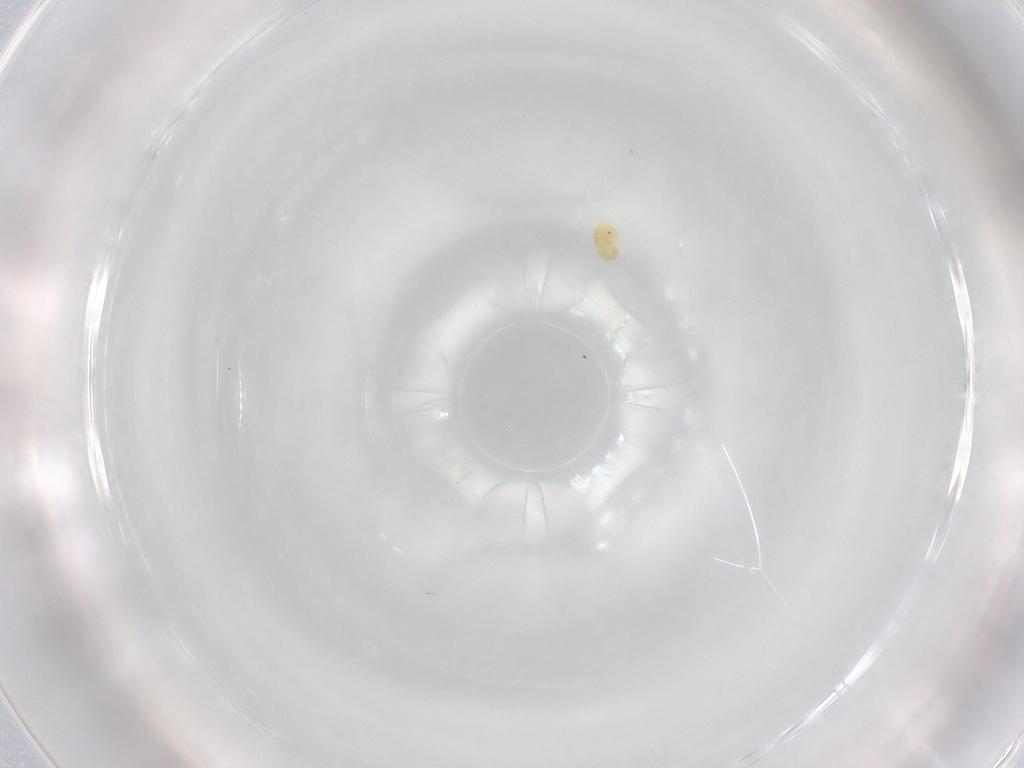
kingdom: Animalia
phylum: Arthropoda
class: Arachnida
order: Trombidiformes
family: Eupodidae
